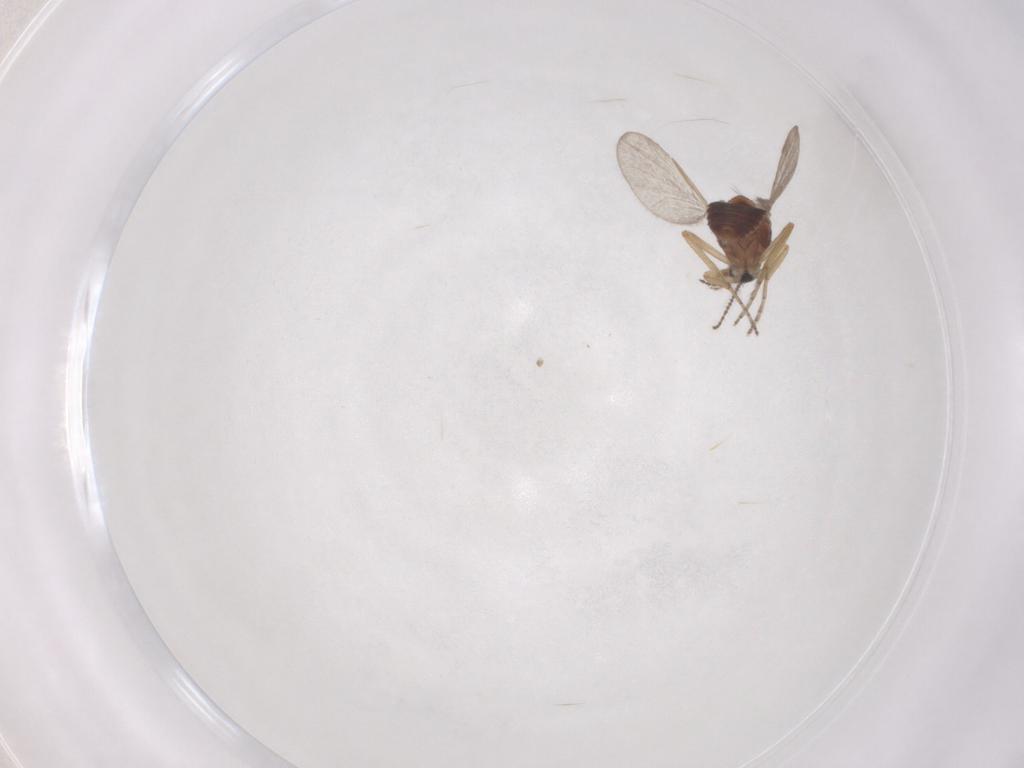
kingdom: Animalia
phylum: Arthropoda
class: Insecta
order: Diptera
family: Ceratopogonidae
